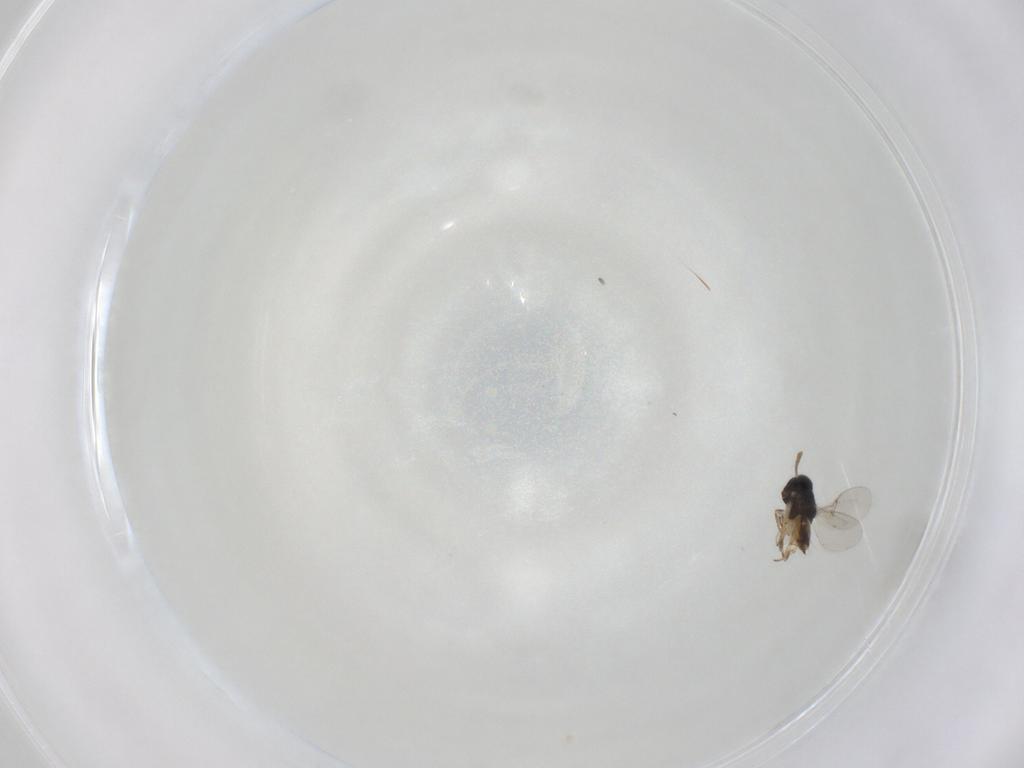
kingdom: Animalia
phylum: Arthropoda
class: Insecta
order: Hymenoptera
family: Encyrtidae
